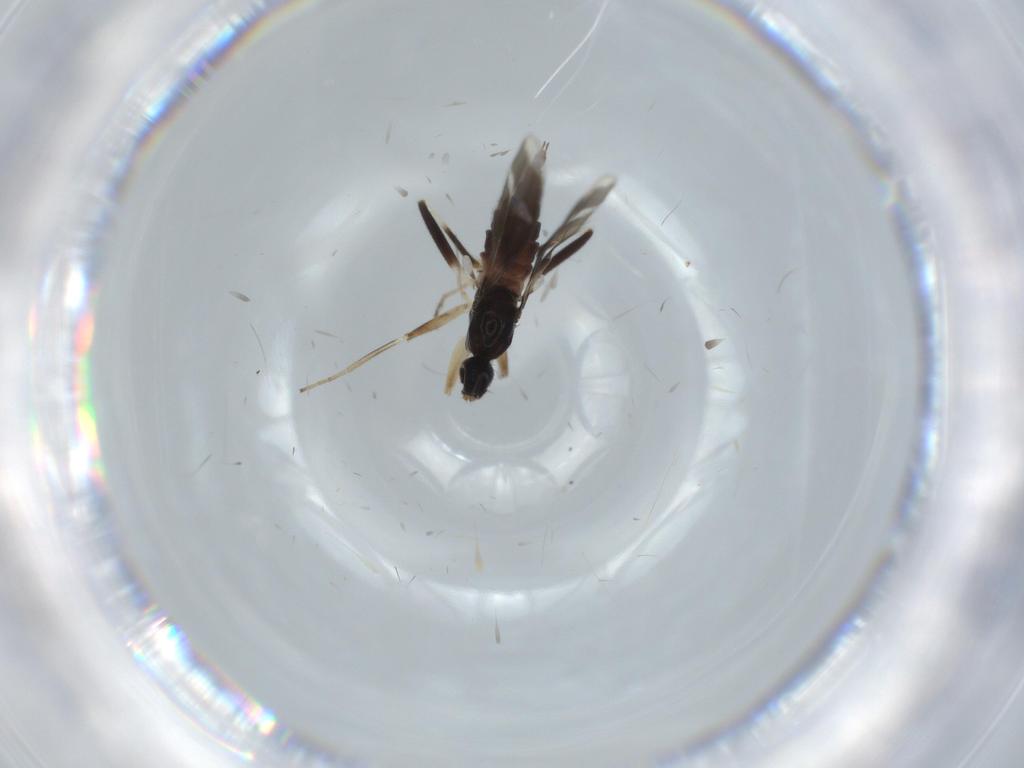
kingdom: Animalia
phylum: Arthropoda
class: Insecta
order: Diptera
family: Hybotidae
